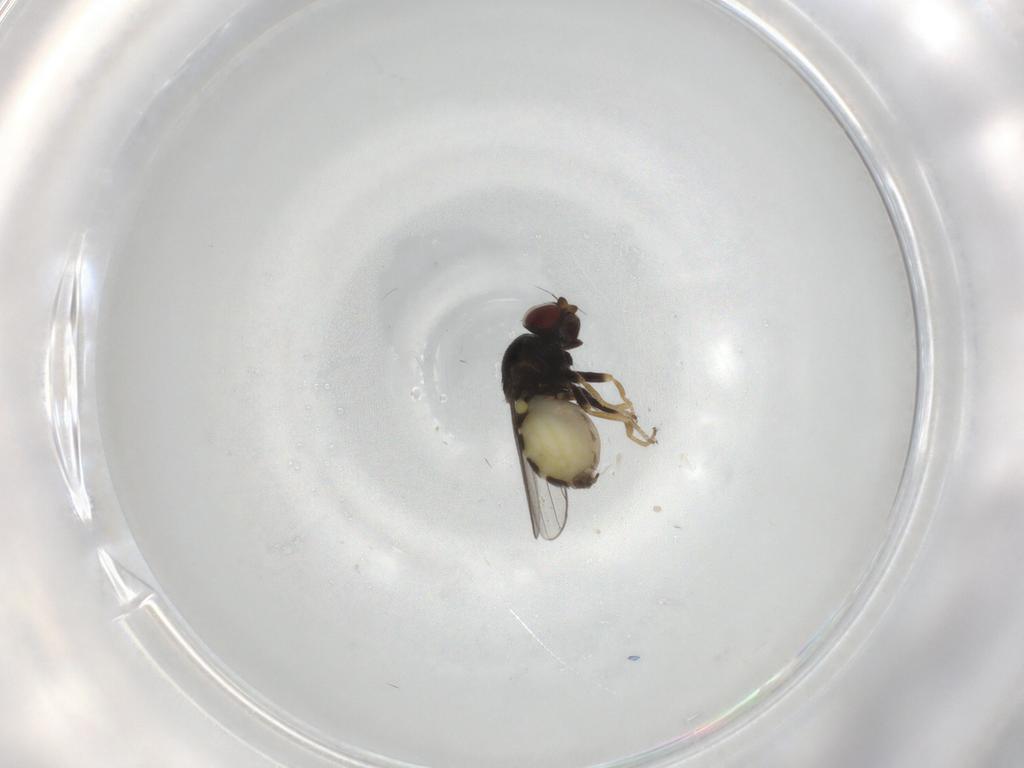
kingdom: Animalia
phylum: Arthropoda
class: Insecta
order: Diptera
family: Chloropidae
